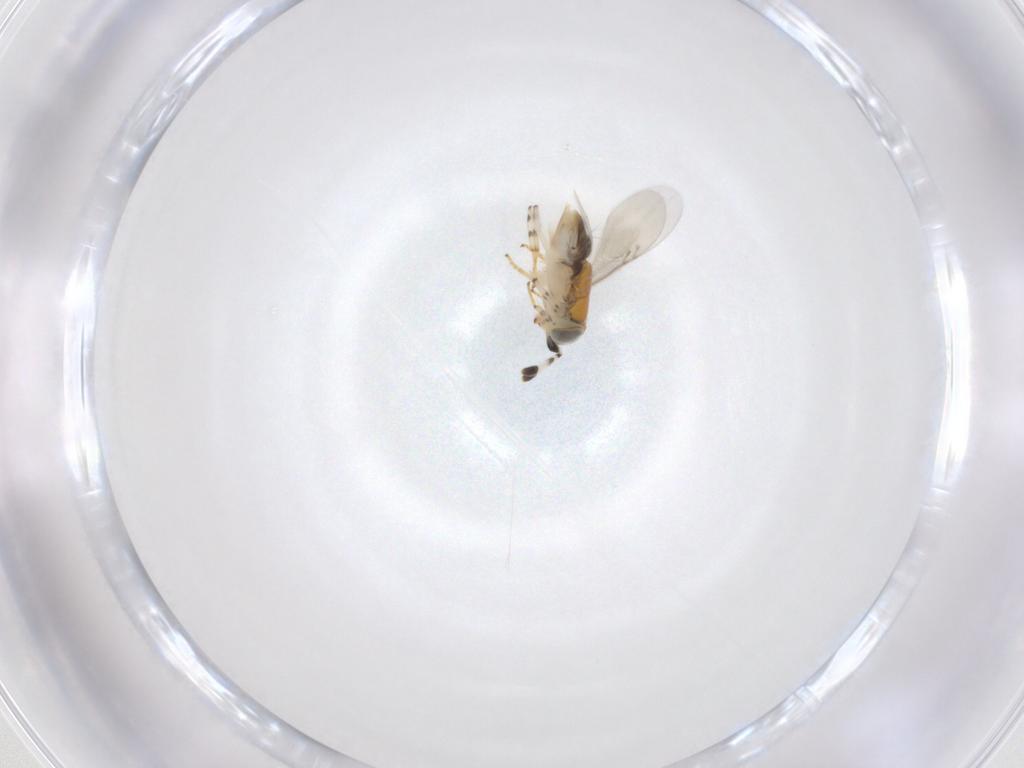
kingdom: Animalia
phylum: Arthropoda
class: Insecta
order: Hymenoptera
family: Encyrtidae
